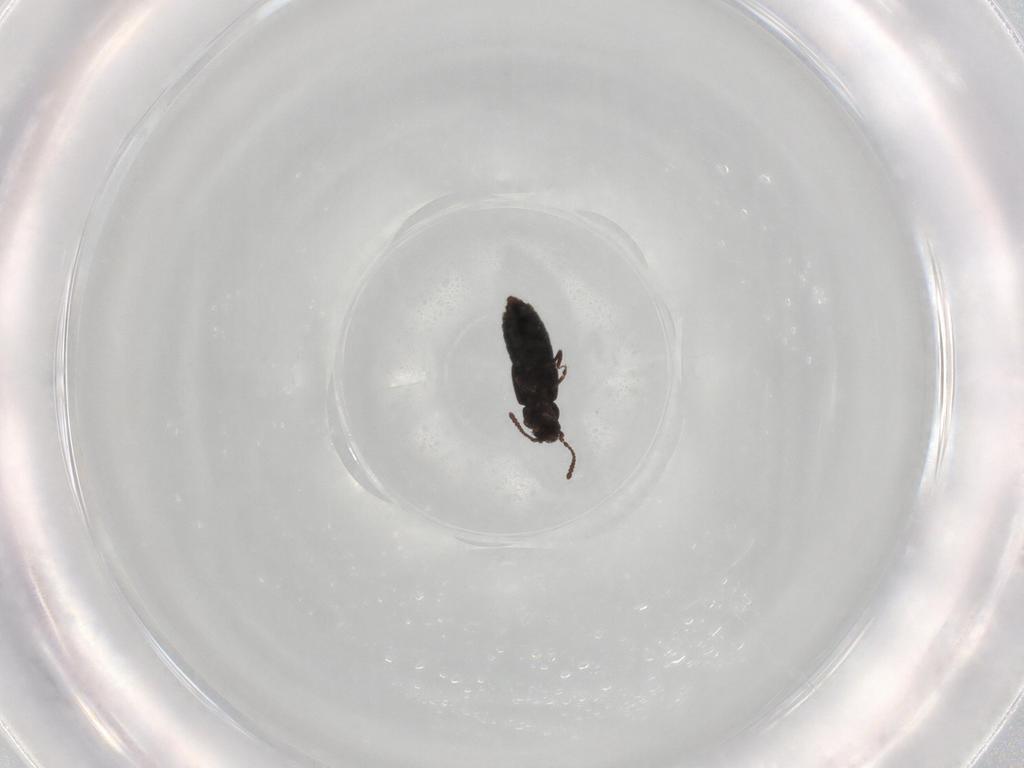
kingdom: Animalia
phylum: Arthropoda
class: Insecta
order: Coleoptera
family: Staphylinidae
